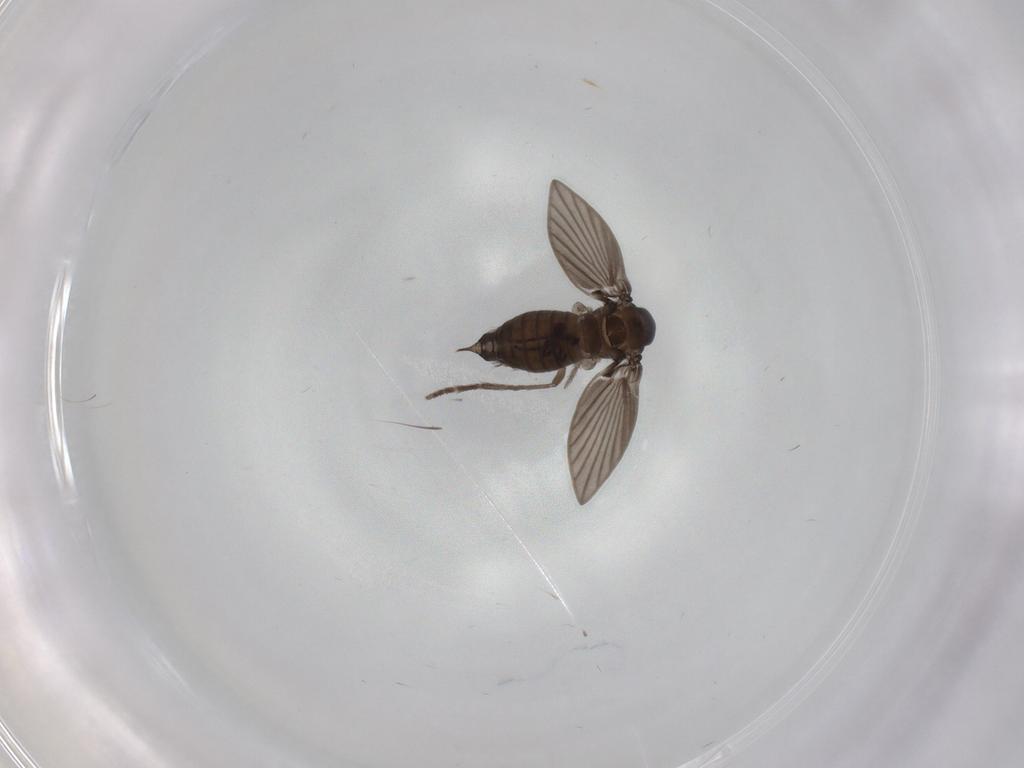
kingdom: Animalia
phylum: Arthropoda
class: Insecta
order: Diptera
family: Psychodidae
